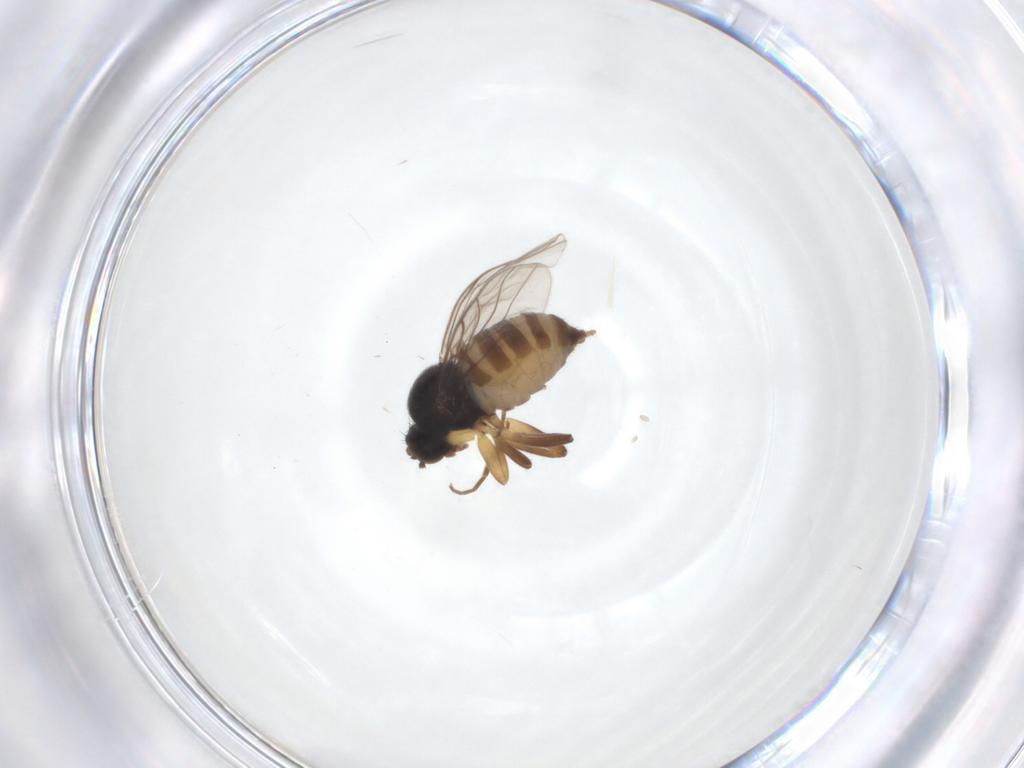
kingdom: Animalia
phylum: Arthropoda
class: Insecta
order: Diptera
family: Hybotidae
